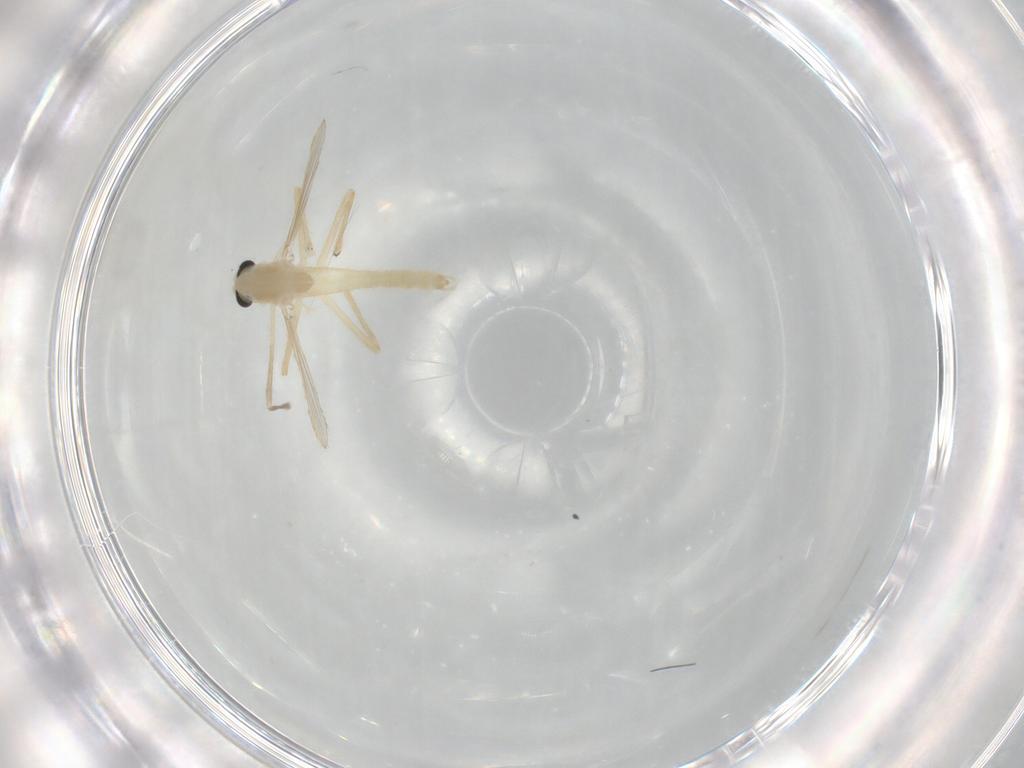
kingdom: Animalia
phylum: Arthropoda
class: Insecta
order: Diptera
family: Chironomidae
